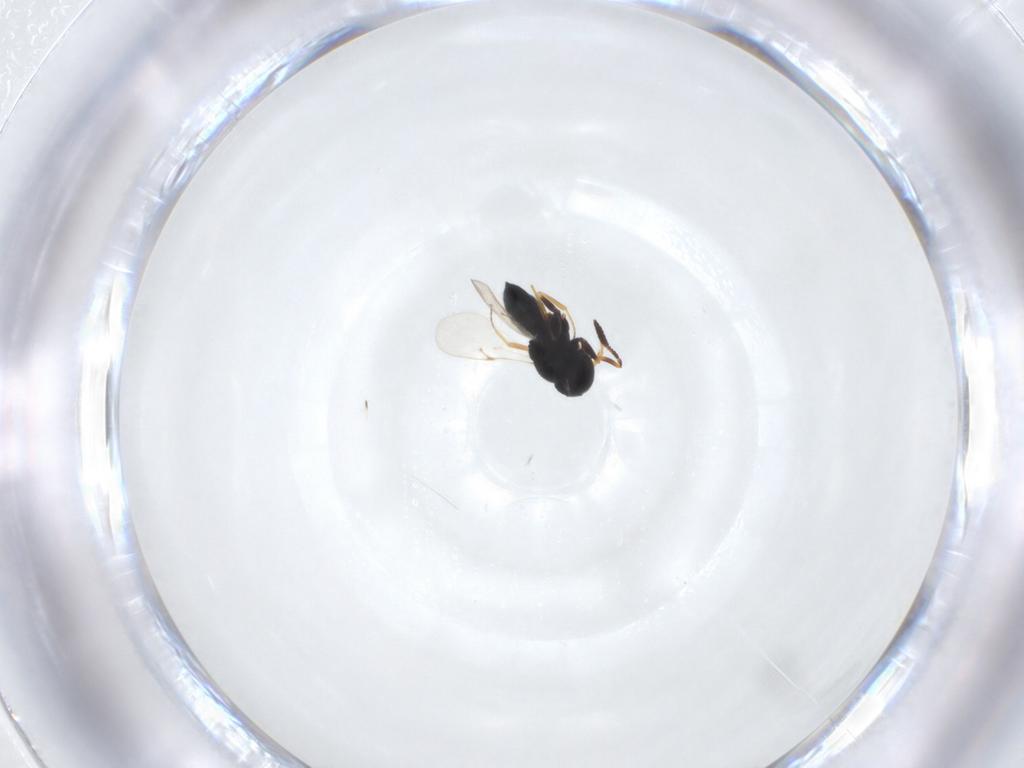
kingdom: Animalia
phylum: Arthropoda
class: Insecta
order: Hymenoptera
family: Scelionidae
